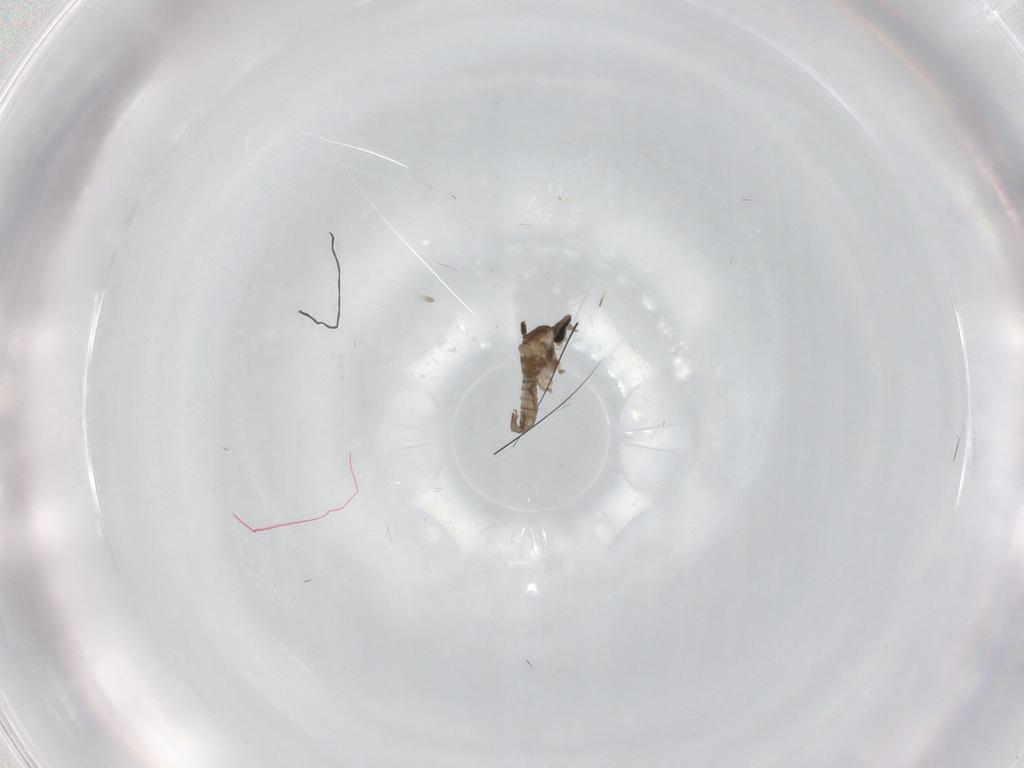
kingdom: Animalia
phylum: Arthropoda
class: Insecta
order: Diptera
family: Cecidomyiidae
